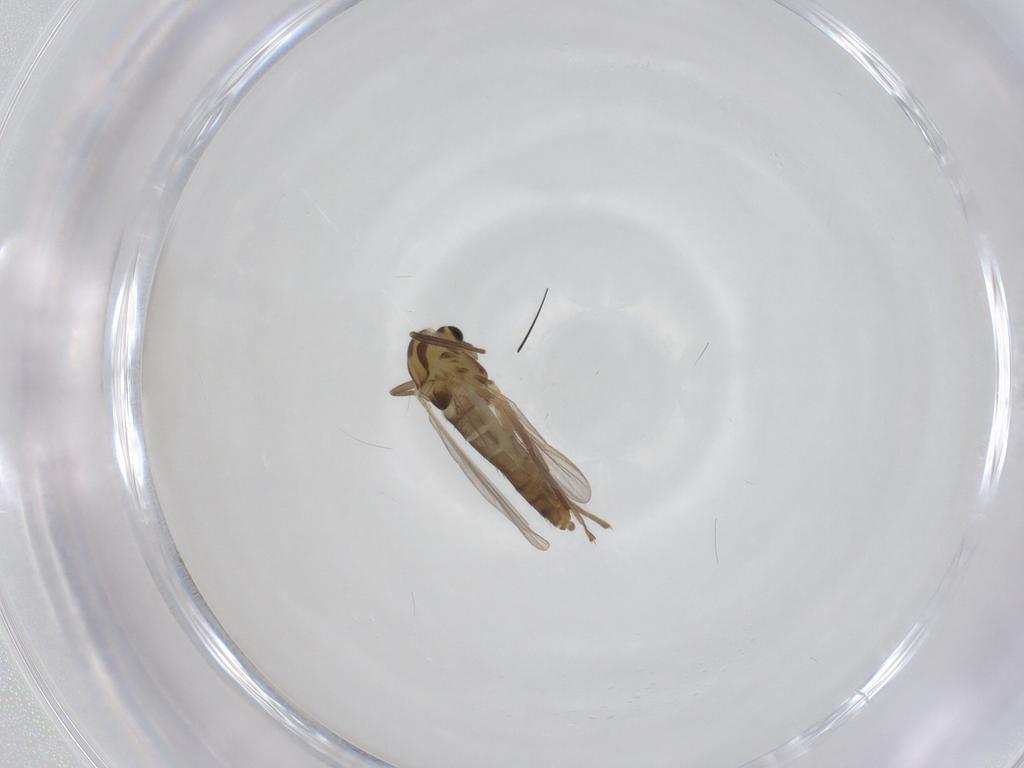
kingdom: Animalia
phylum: Arthropoda
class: Insecta
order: Diptera
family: Chironomidae
